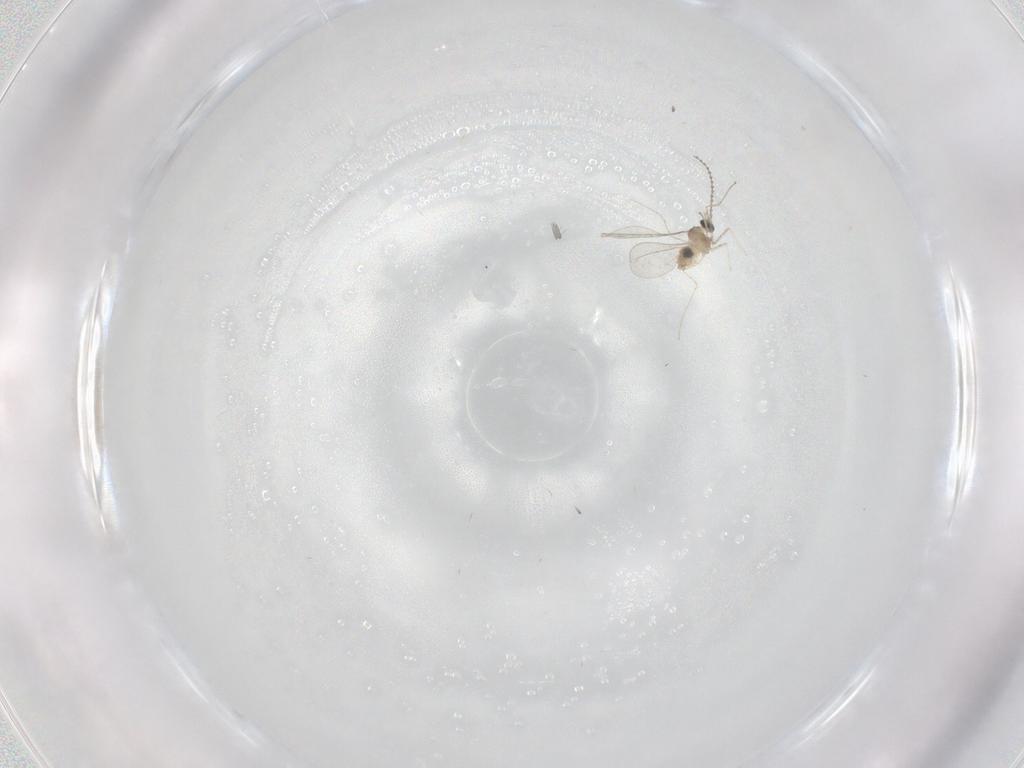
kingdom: Animalia
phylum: Arthropoda
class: Insecta
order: Diptera
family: Cecidomyiidae
